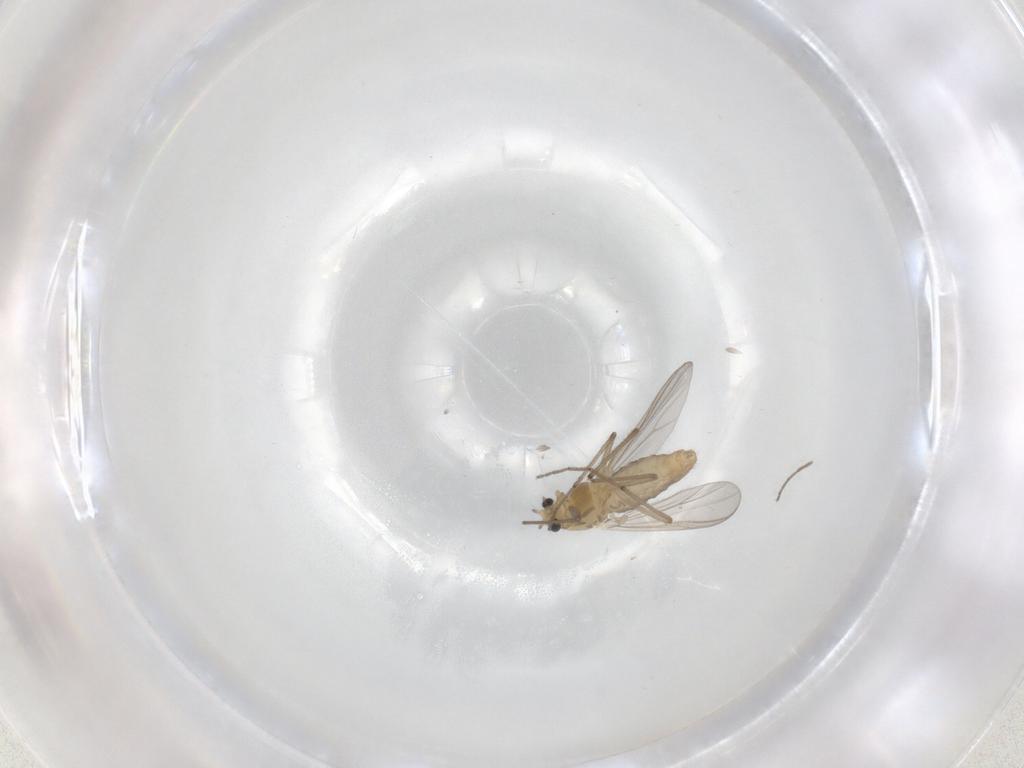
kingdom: Animalia
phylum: Arthropoda
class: Insecta
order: Diptera
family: Chironomidae
